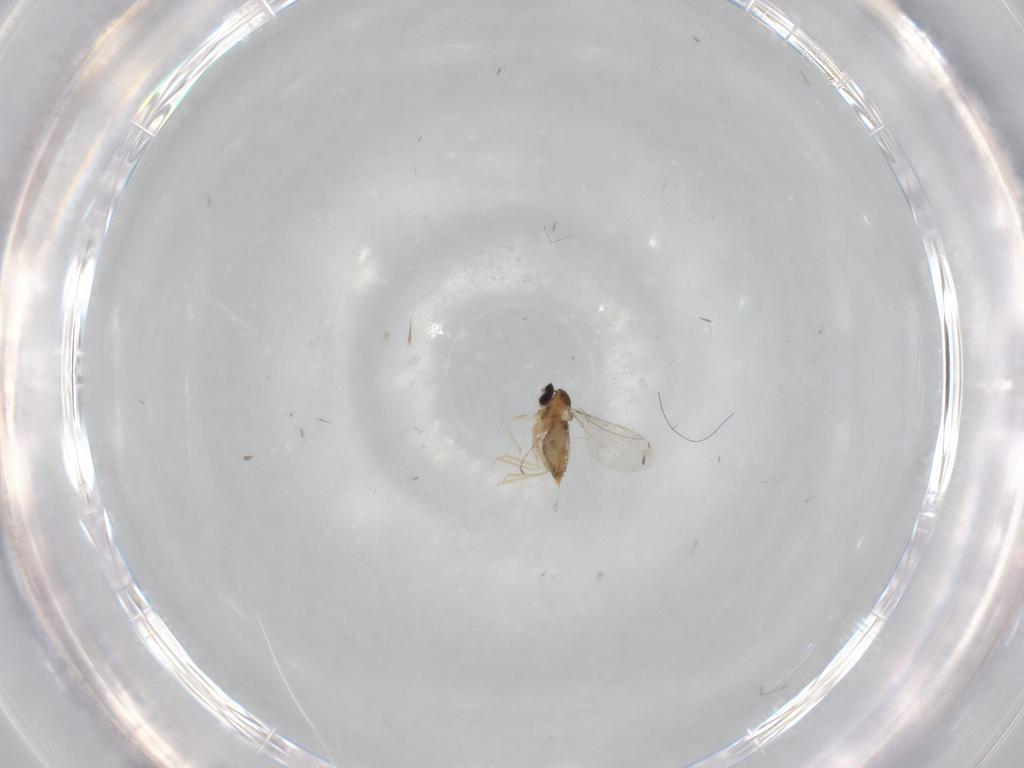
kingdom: Animalia
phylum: Arthropoda
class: Insecta
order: Diptera
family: Cecidomyiidae
